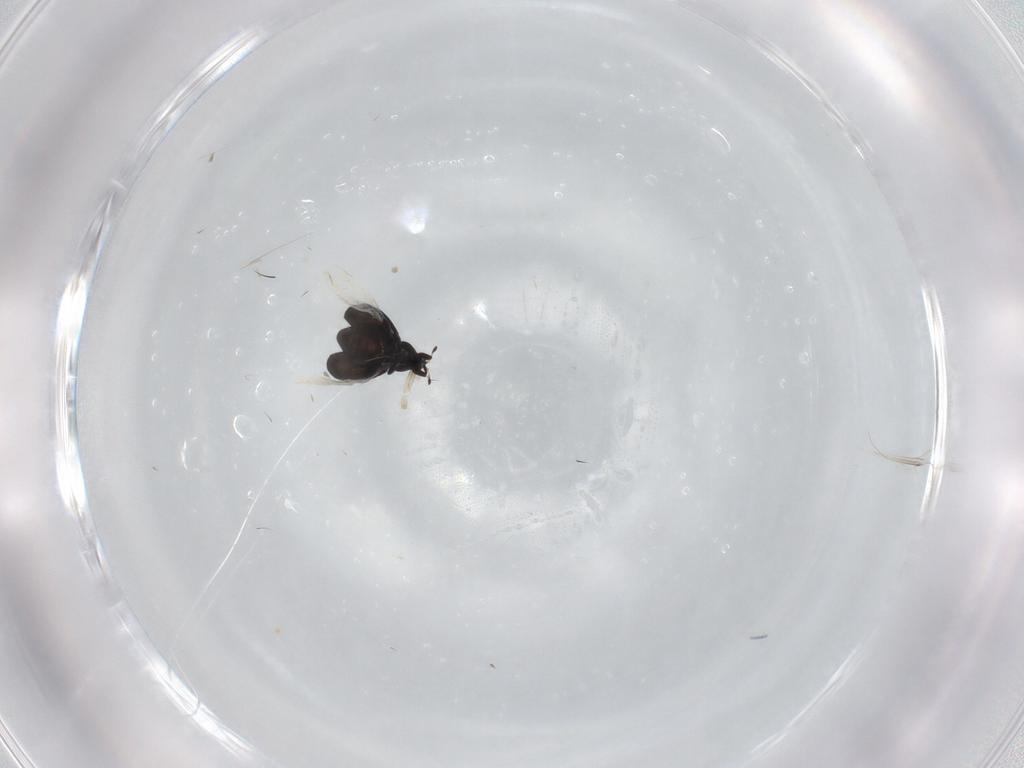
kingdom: Animalia
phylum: Arthropoda
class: Insecta
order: Coleoptera
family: Curculionidae
